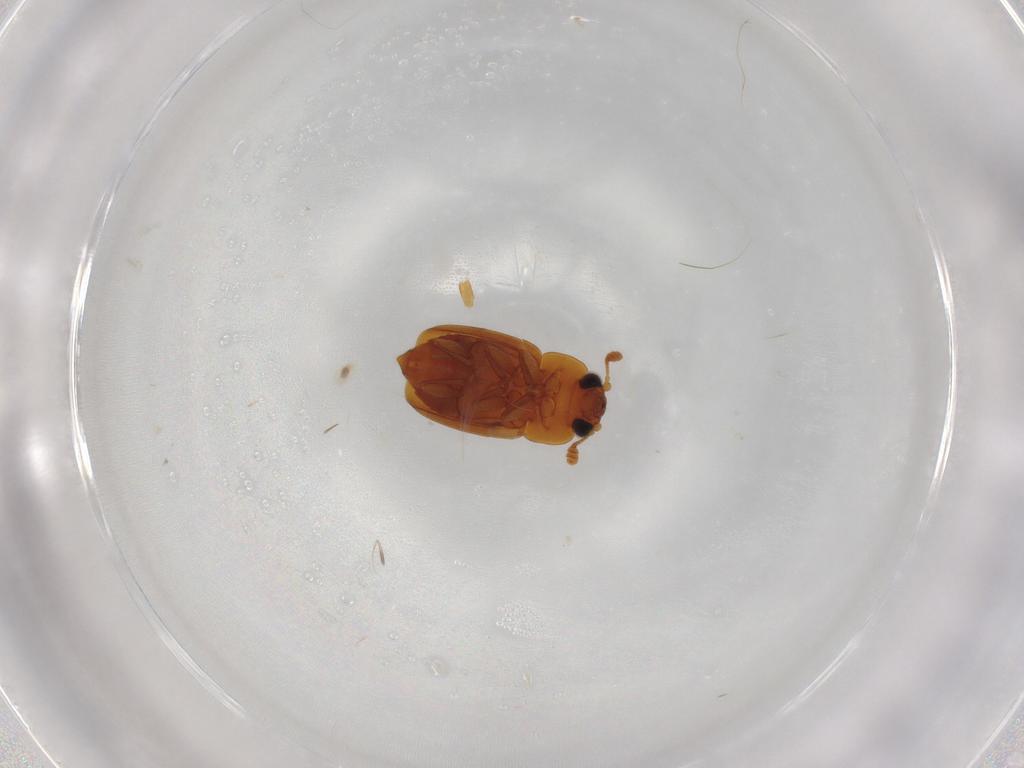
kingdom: Animalia
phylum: Arthropoda
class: Insecta
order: Coleoptera
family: Nitidulidae
